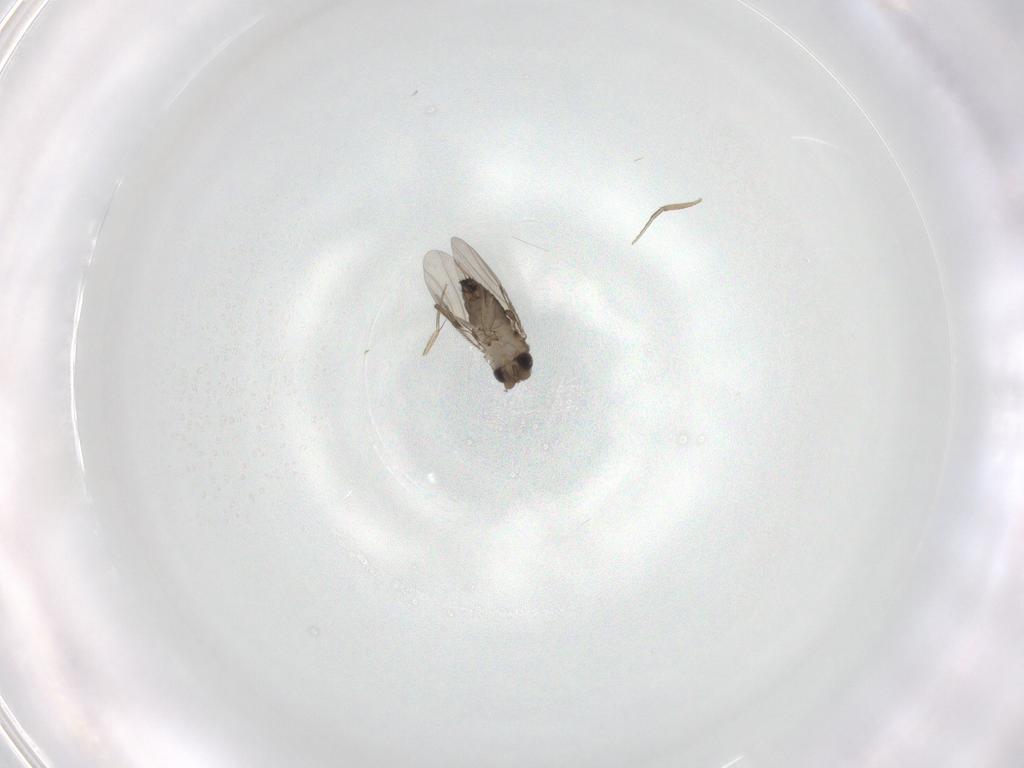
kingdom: Animalia
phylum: Arthropoda
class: Insecta
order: Diptera
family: Phoridae
